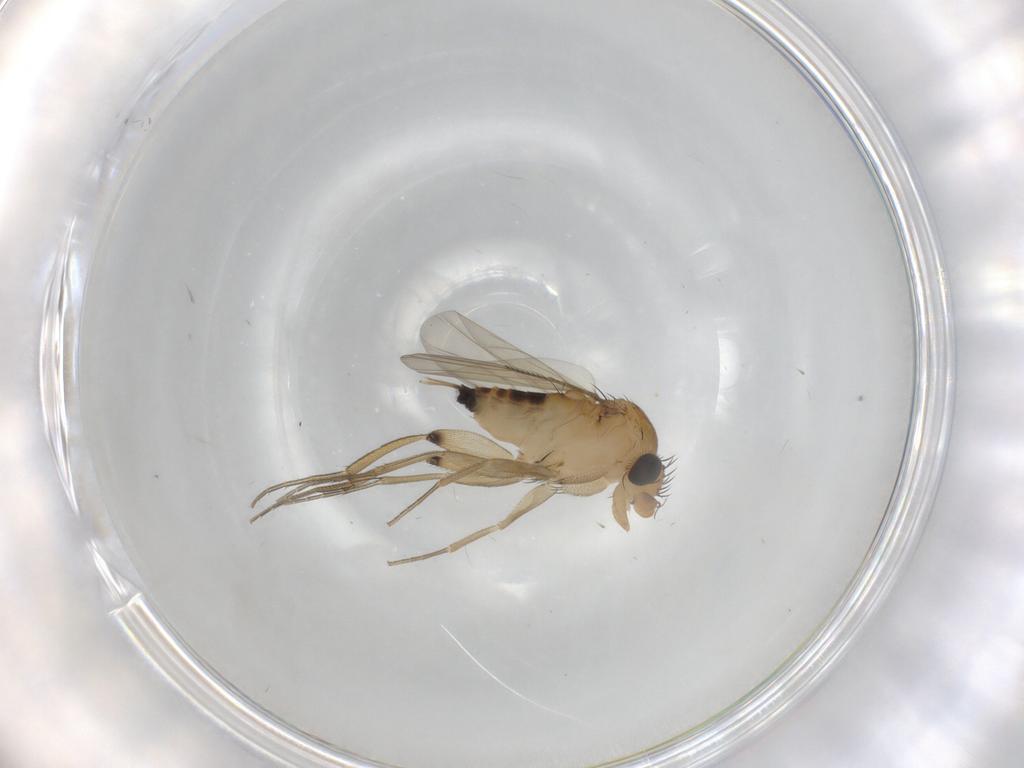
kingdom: Animalia
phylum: Arthropoda
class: Insecta
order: Diptera
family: Phoridae
